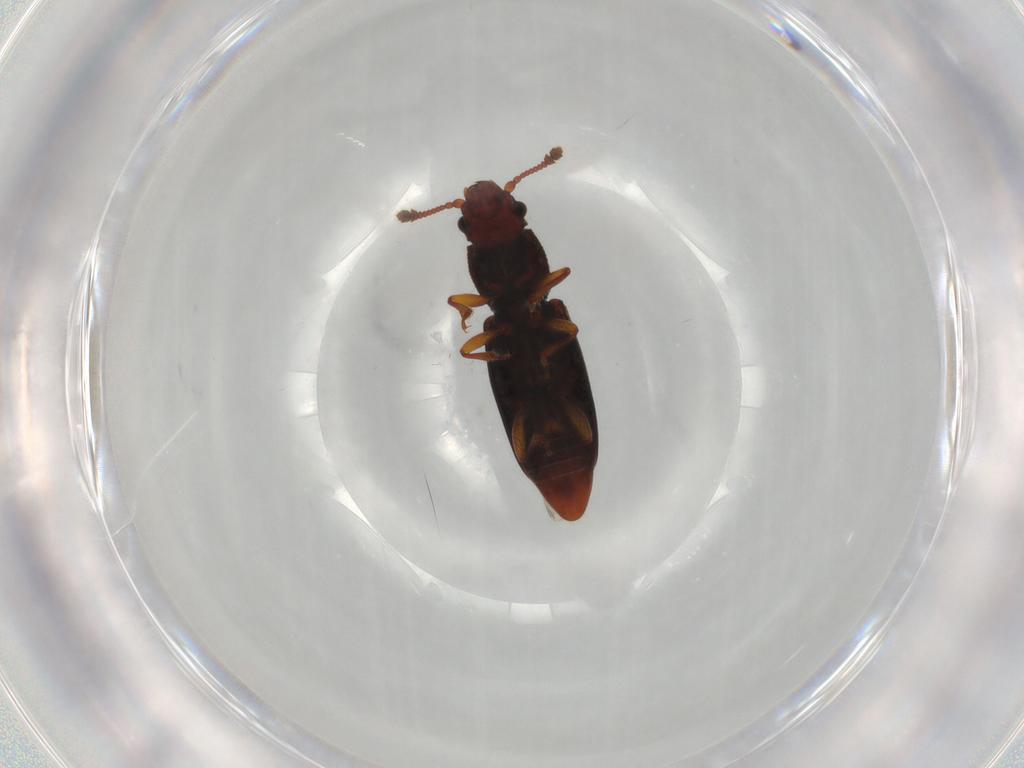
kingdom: Animalia
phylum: Arthropoda
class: Insecta
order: Coleoptera
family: Monotomidae
